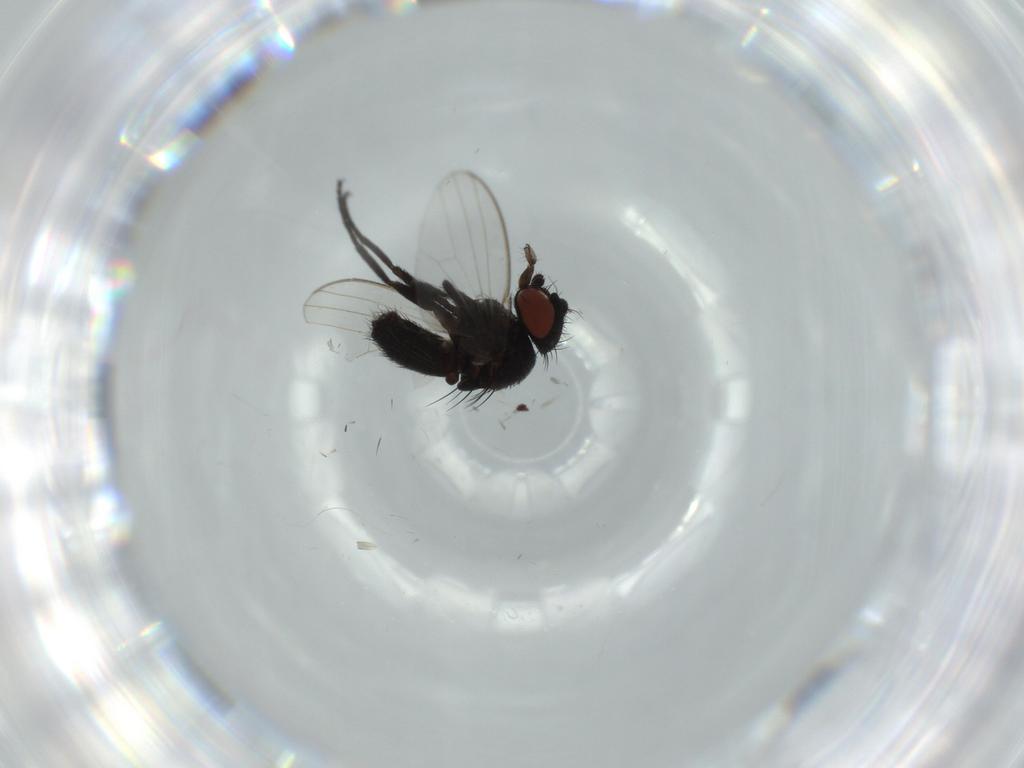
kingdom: Animalia
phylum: Arthropoda
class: Insecta
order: Diptera
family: Milichiidae
